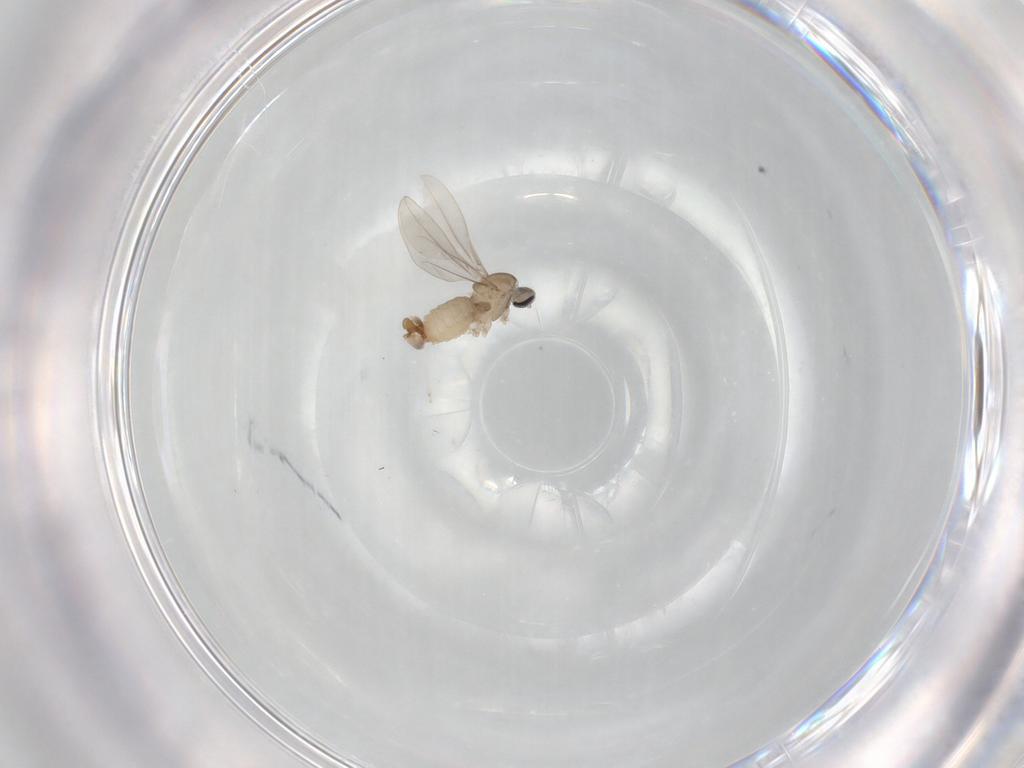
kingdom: Animalia
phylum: Arthropoda
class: Insecta
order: Diptera
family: Cecidomyiidae
